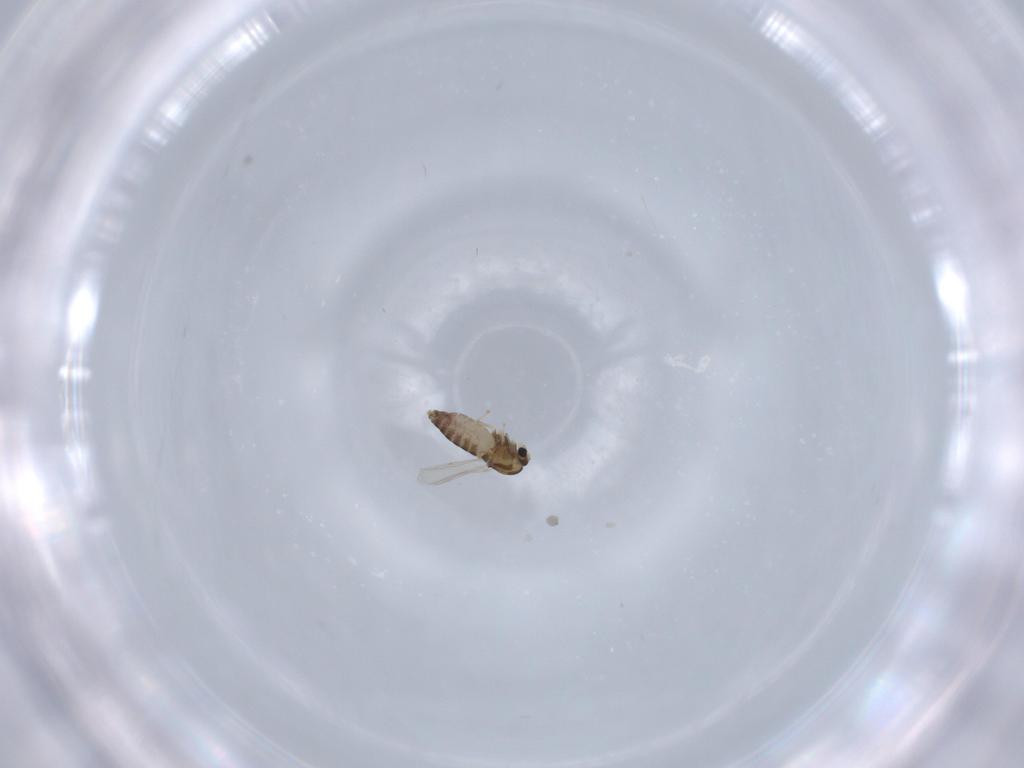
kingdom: Animalia
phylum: Arthropoda
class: Insecta
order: Diptera
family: Chironomidae
